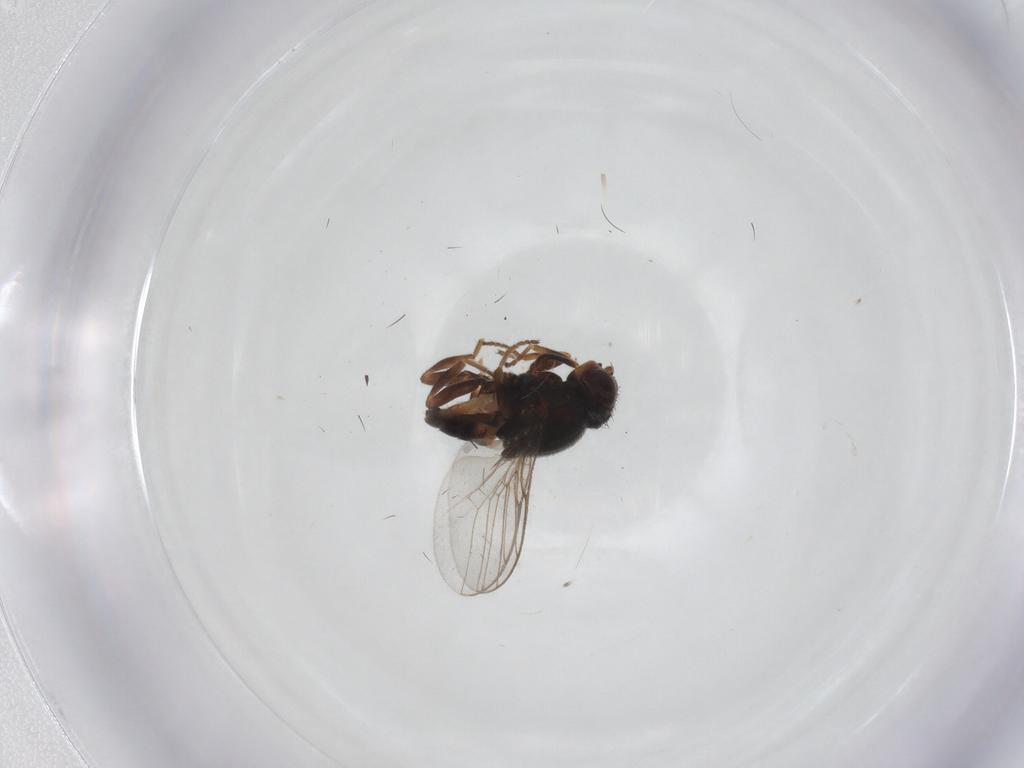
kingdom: Animalia
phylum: Arthropoda
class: Insecta
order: Diptera
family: Chloropidae
